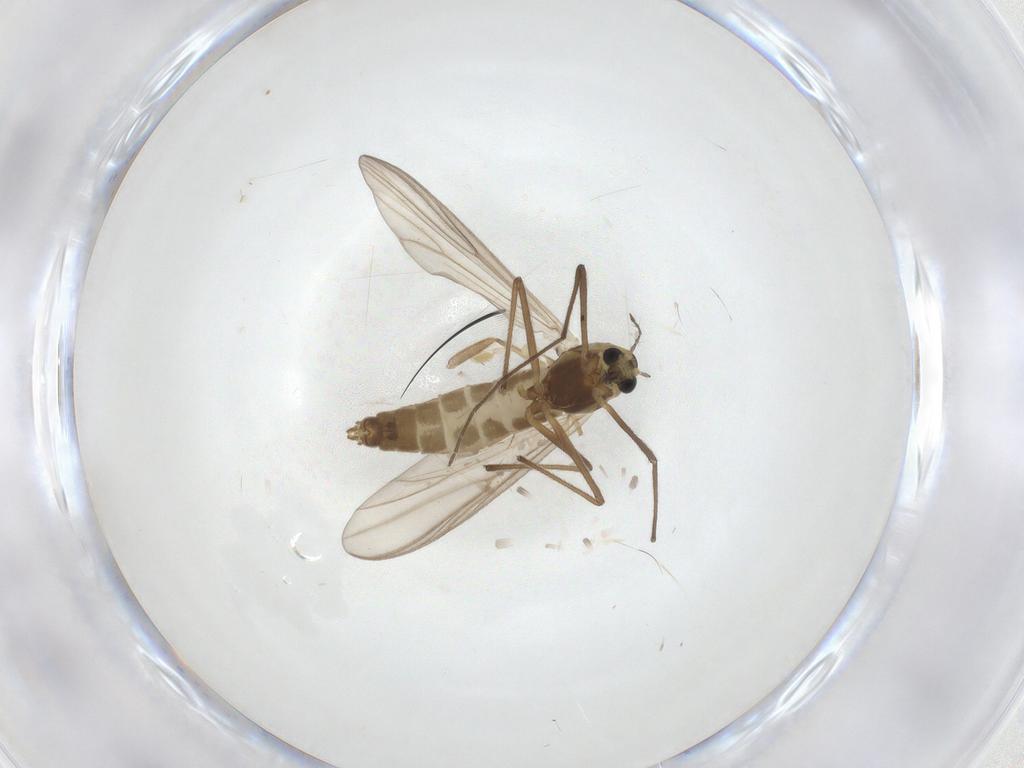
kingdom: Animalia
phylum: Arthropoda
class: Insecta
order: Diptera
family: Chironomidae
